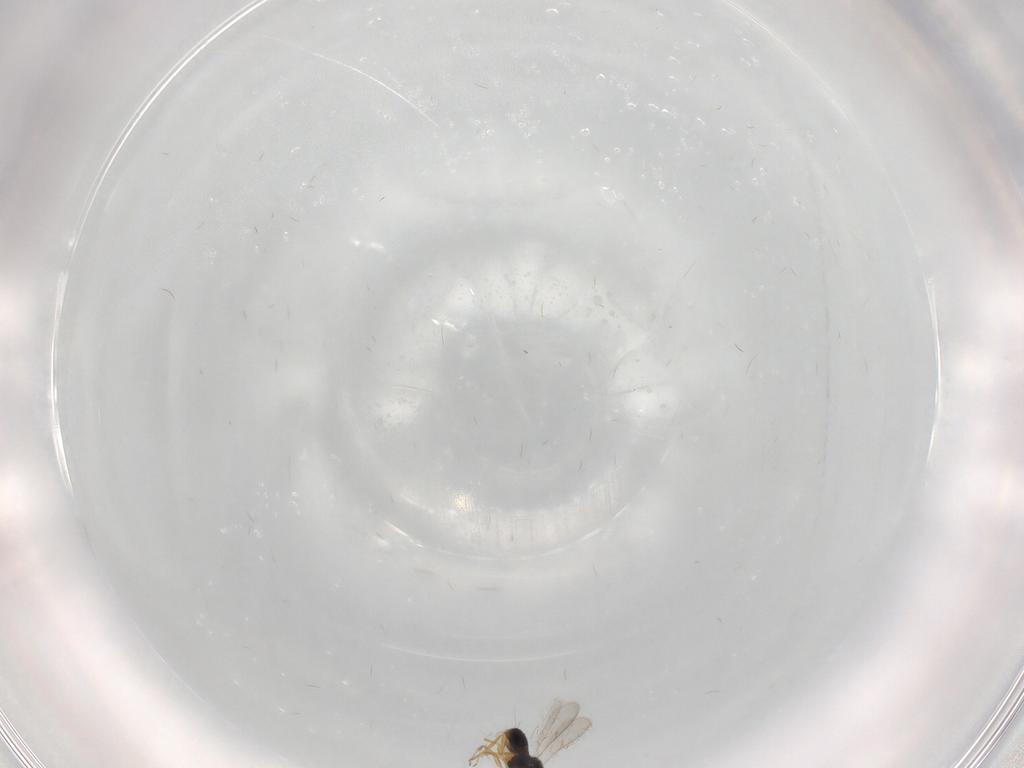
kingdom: Animalia
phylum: Arthropoda
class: Insecta
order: Hymenoptera
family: Scelionidae
